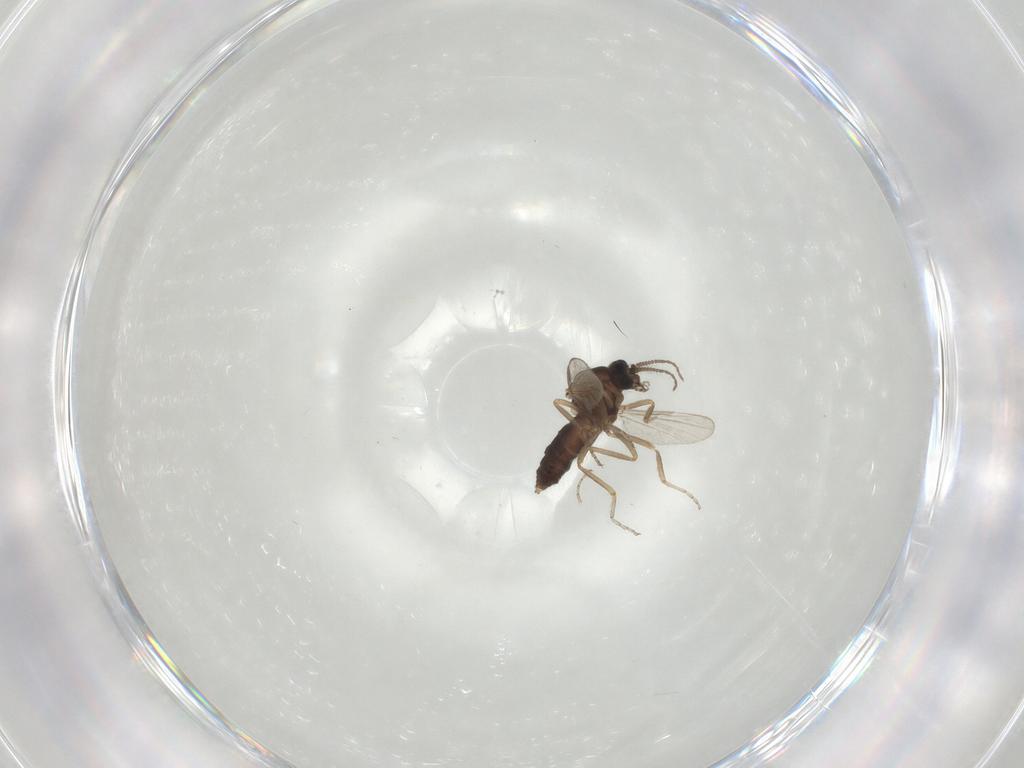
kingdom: Animalia
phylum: Arthropoda
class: Insecta
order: Diptera
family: Ceratopogonidae
